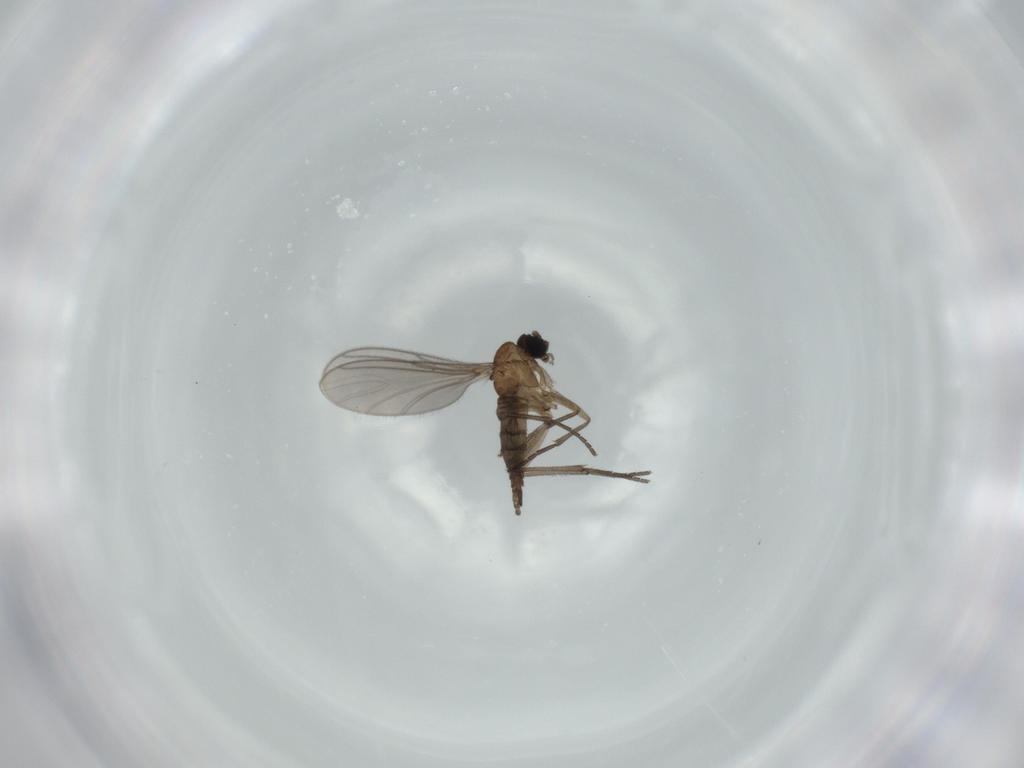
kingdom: Animalia
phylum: Arthropoda
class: Insecta
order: Diptera
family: Sciaridae
